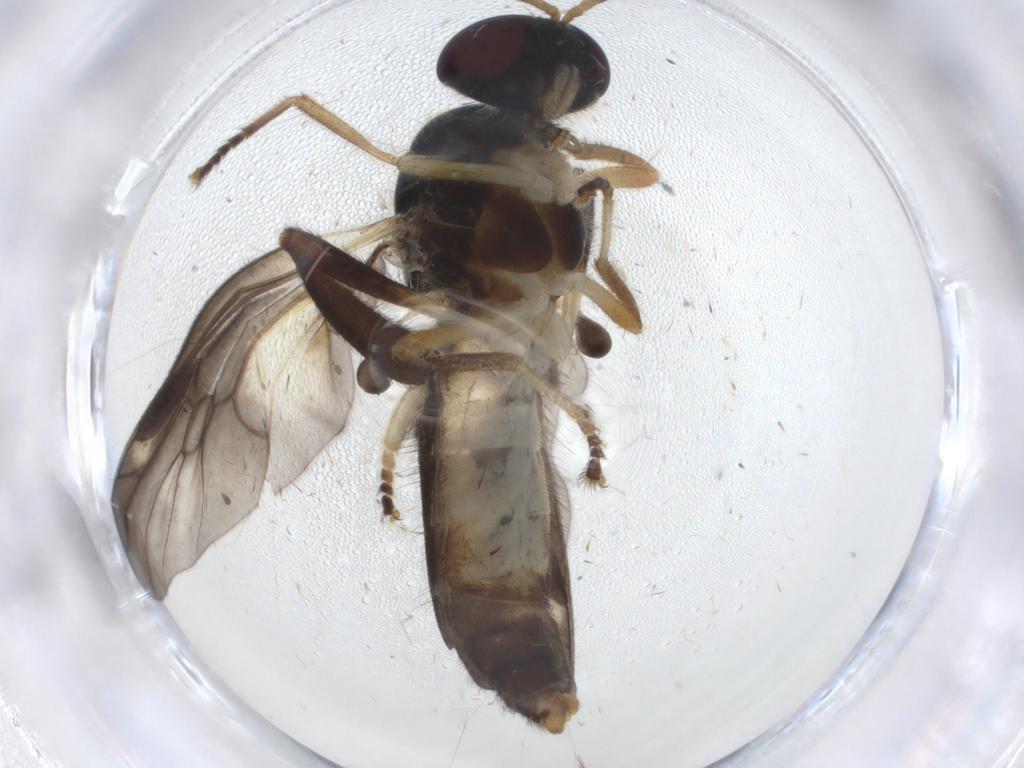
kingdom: Animalia
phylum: Arthropoda
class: Insecta
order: Diptera
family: Stratiomyidae
